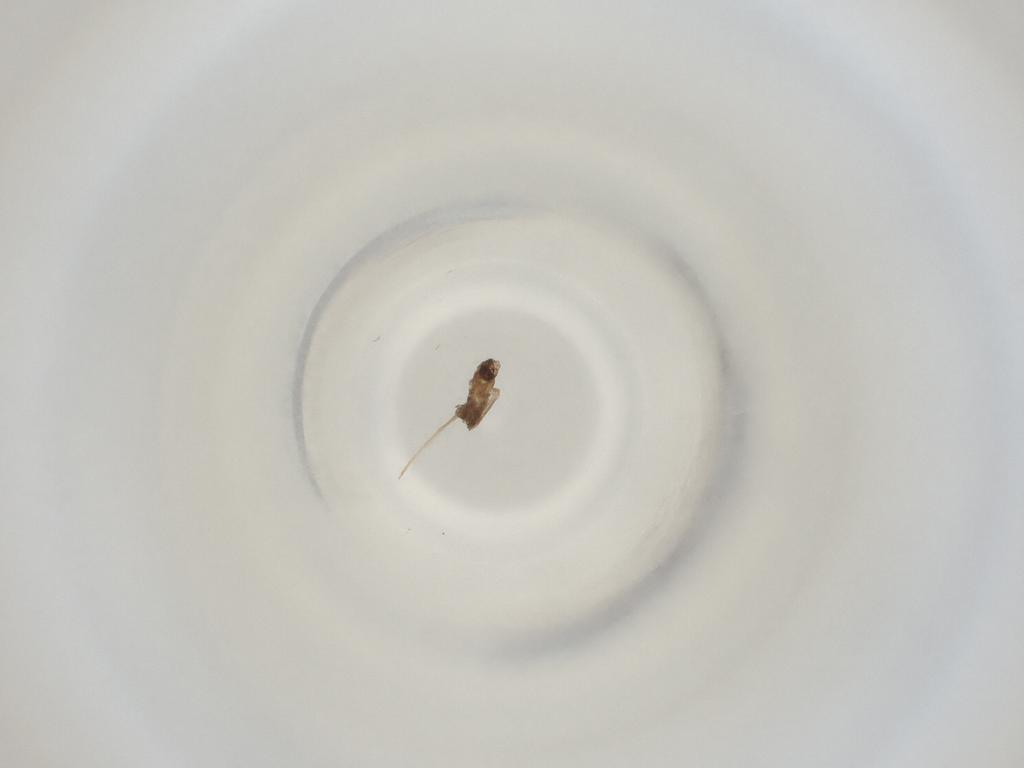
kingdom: Animalia
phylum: Arthropoda
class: Insecta
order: Diptera
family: Cecidomyiidae
